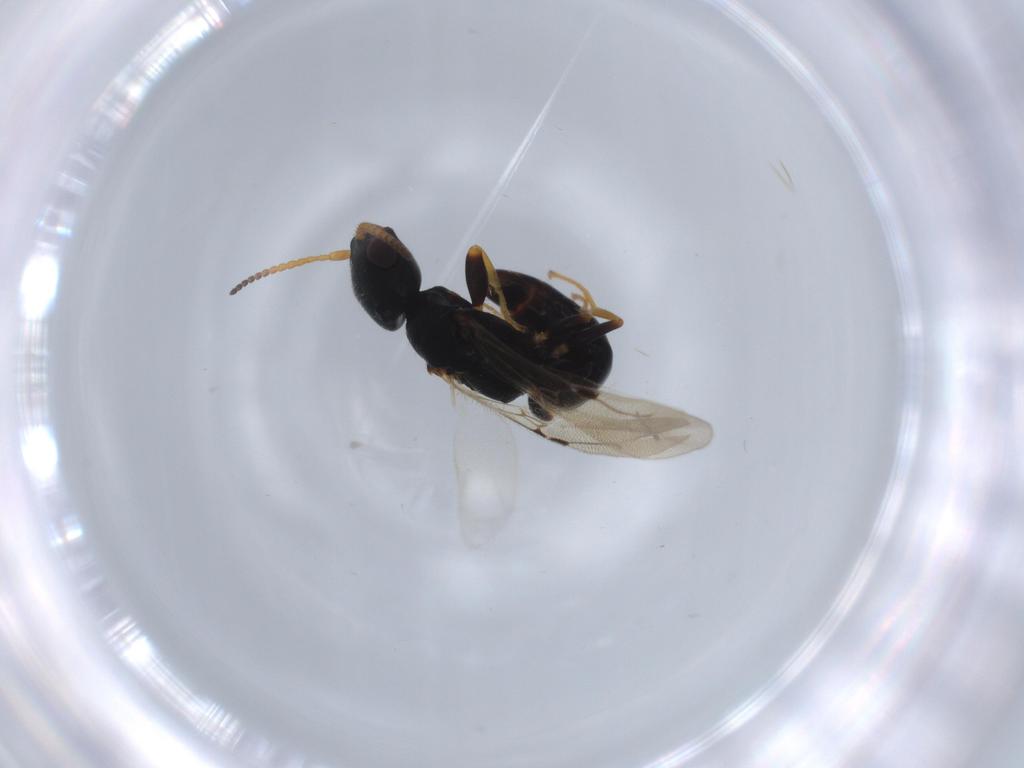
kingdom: Animalia
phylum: Arthropoda
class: Insecta
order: Hymenoptera
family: Bethylidae
